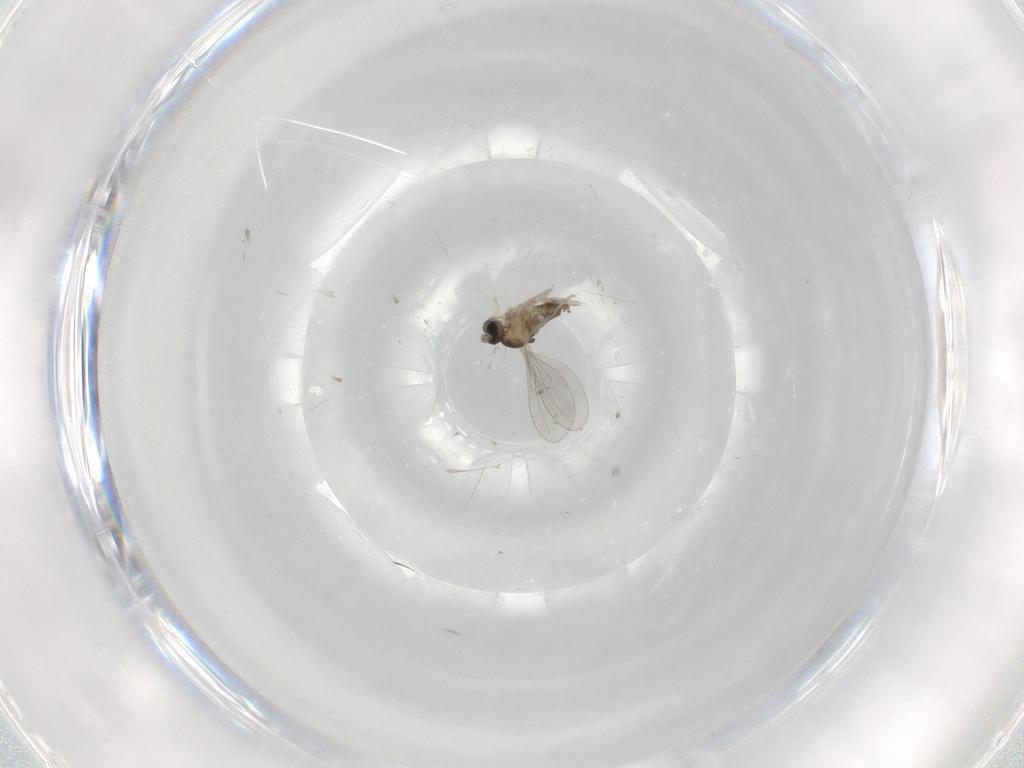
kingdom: Animalia
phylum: Arthropoda
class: Insecta
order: Diptera
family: Cecidomyiidae
